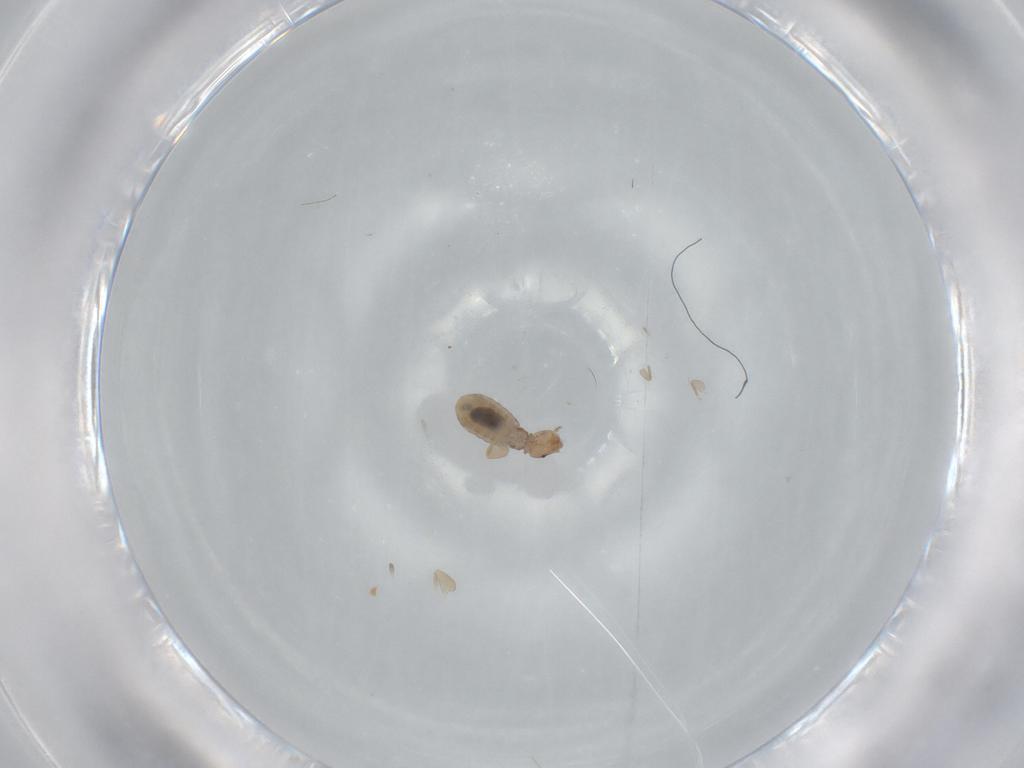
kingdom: Animalia
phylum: Arthropoda
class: Insecta
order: Psocodea
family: Liposcelididae
